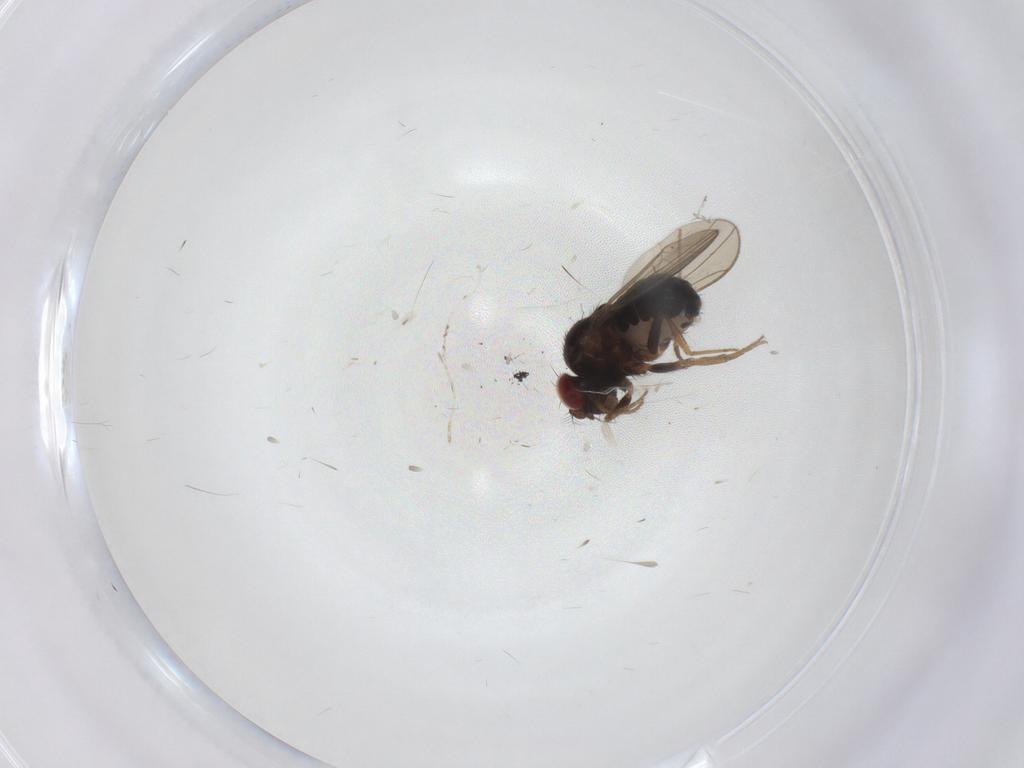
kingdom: Animalia
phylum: Arthropoda
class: Insecta
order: Diptera
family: Drosophilidae
